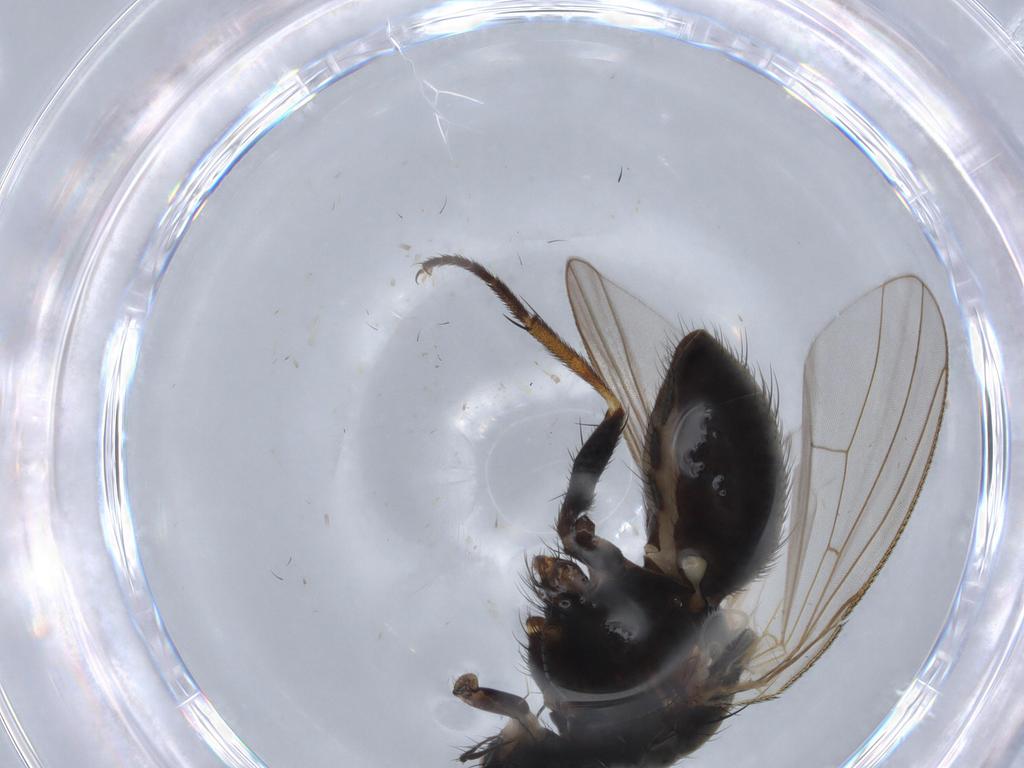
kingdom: Animalia
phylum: Arthropoda
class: Insecta
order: Diptera
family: Muscidae
